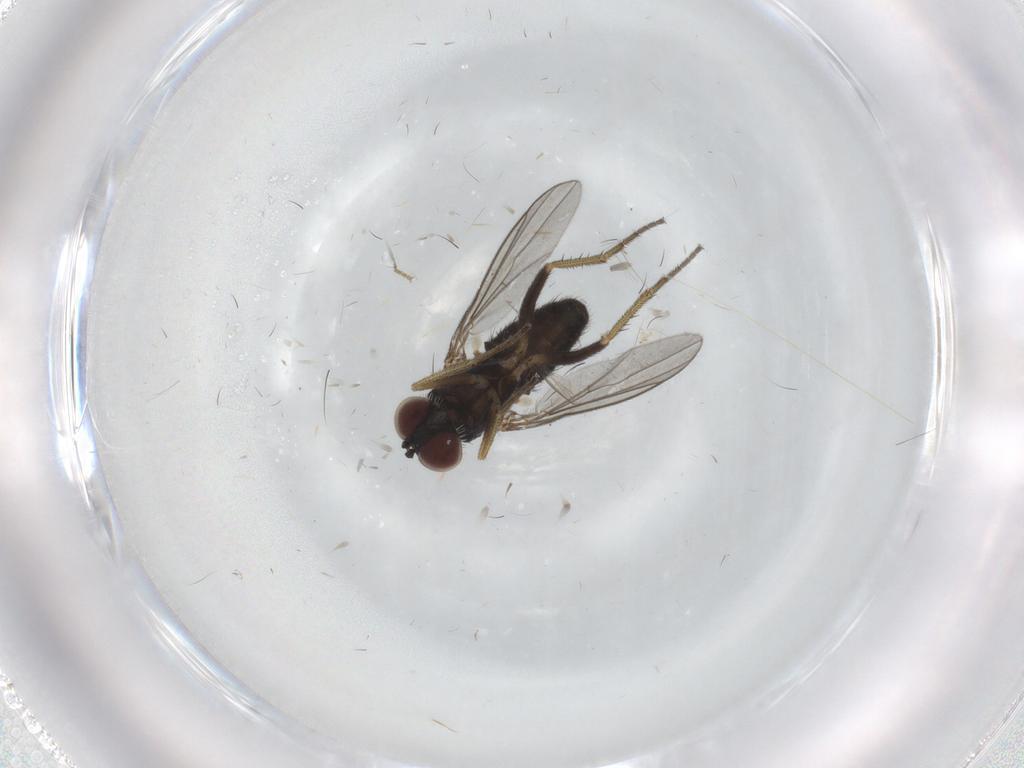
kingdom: Animalia
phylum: Arthropoda
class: Insecta
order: Diptera
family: Sphaeroceridae
